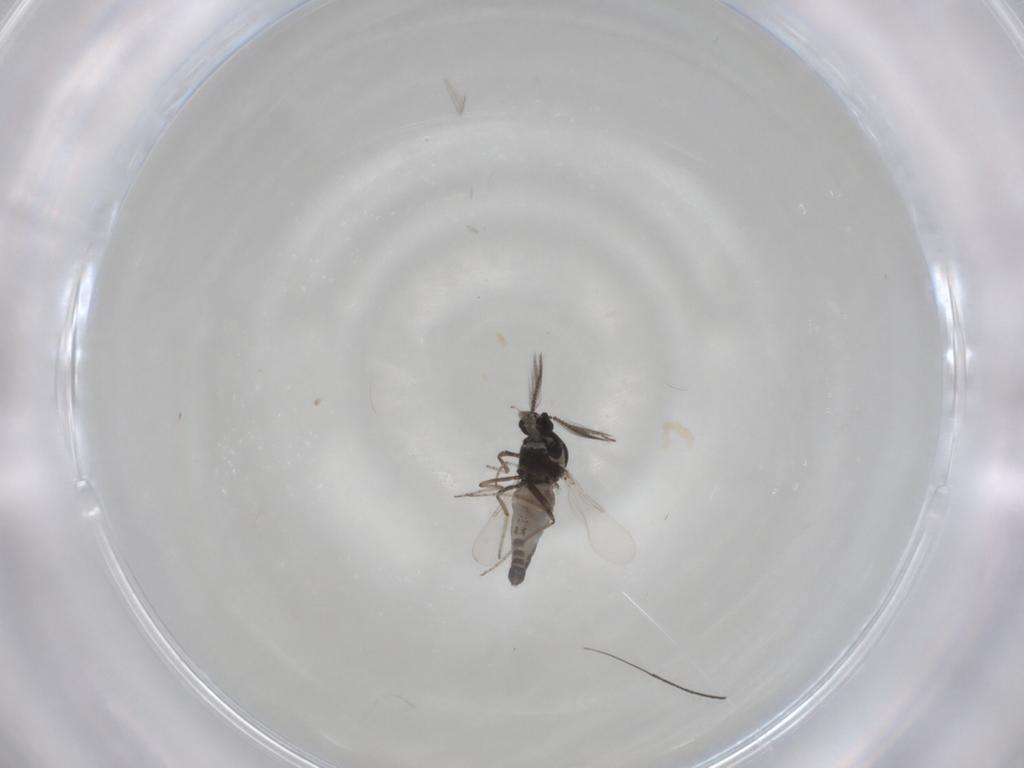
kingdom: Animalia
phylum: Arthropoda
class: Insecta
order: Diptera
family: Ceratopogonidae
